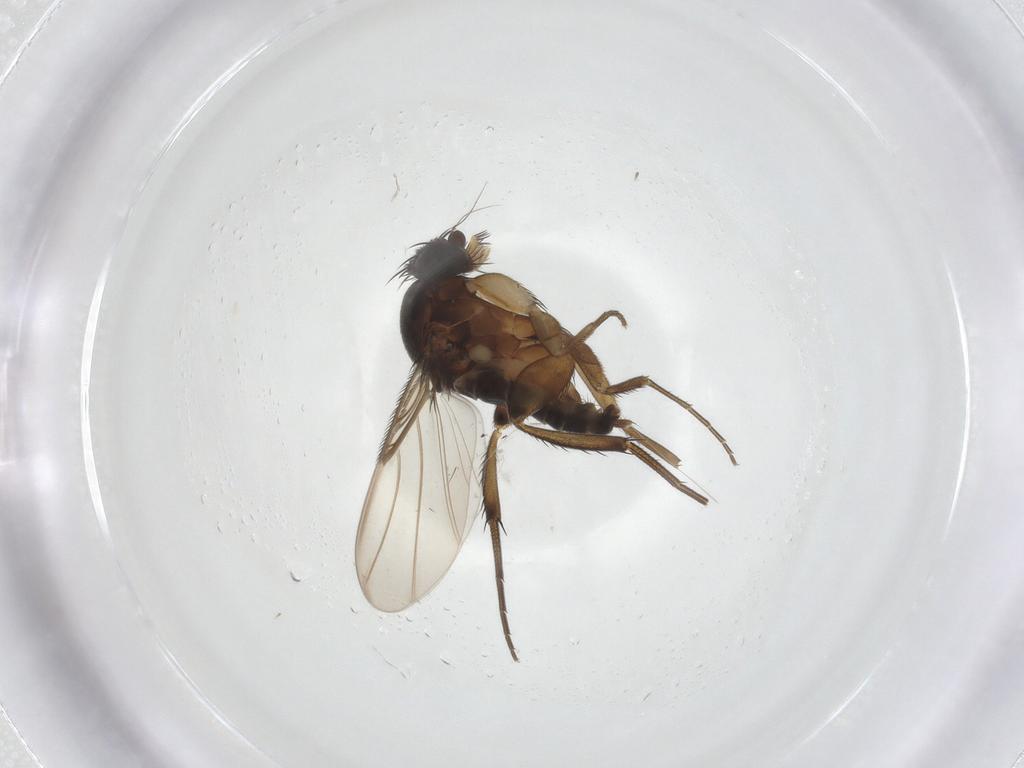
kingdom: Animalia
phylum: Arthropoda
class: Insecta
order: Diptera
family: Phoridae
